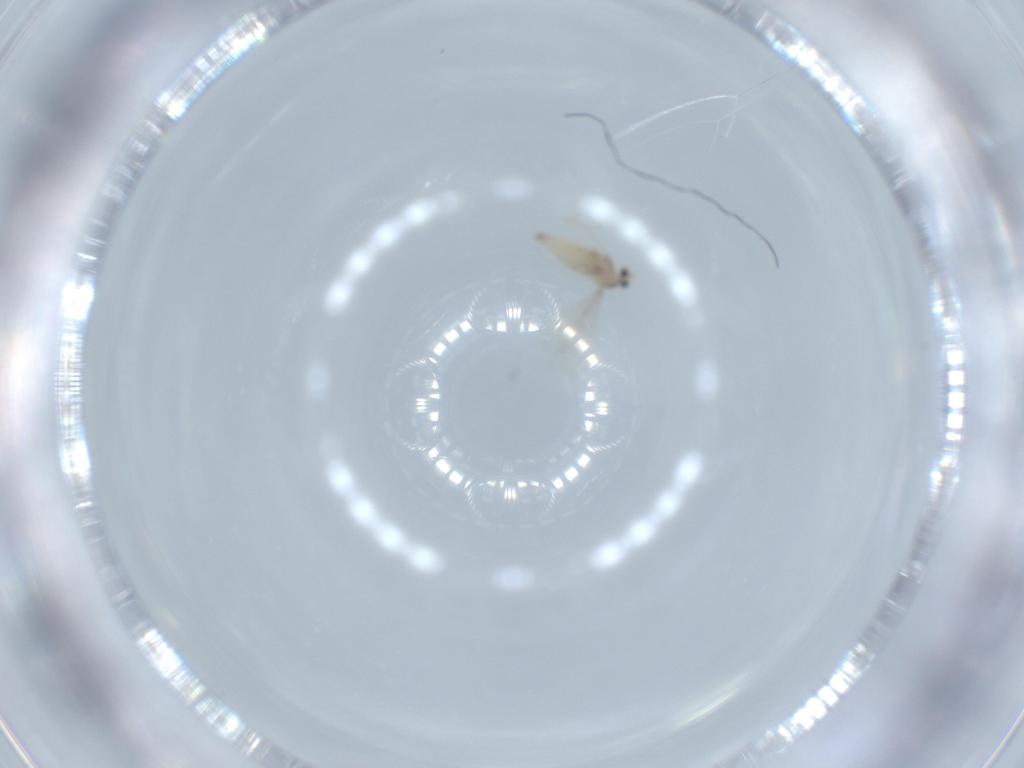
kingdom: Animalia
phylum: Arthropoda
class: Insecta
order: Diptera
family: Cecidomyiidae
